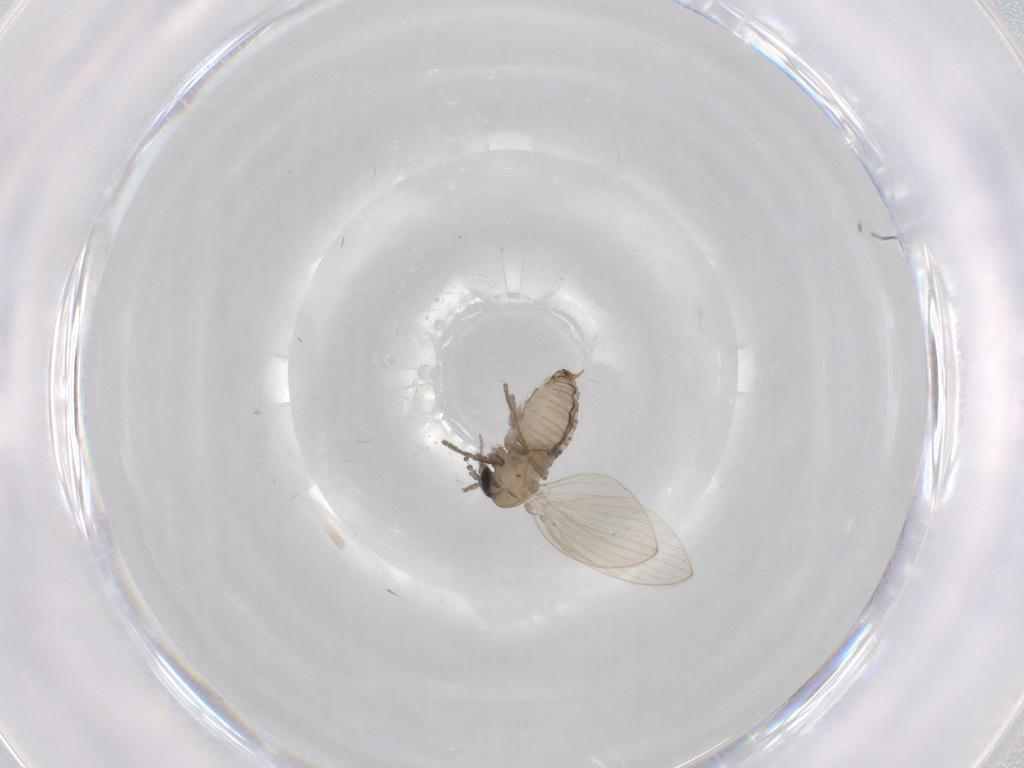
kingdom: Animalia
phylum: Arthropoda
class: Insecta
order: Diptera
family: Psychodidae
